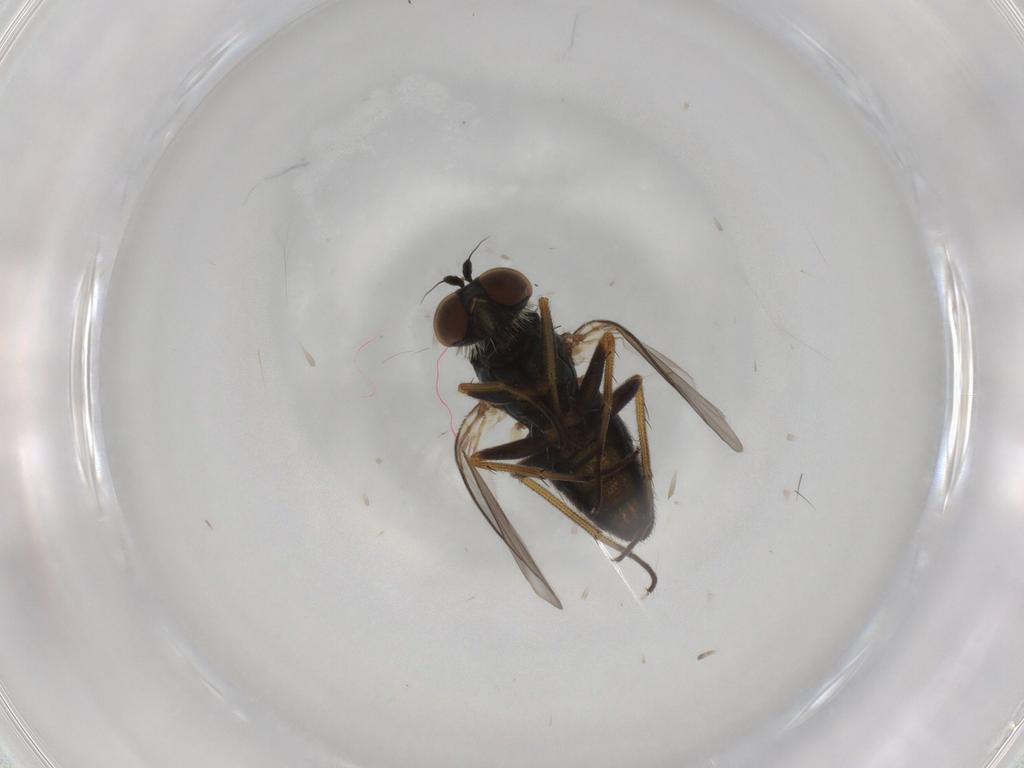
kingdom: Animalia
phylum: Arthropoda
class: Insecta
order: Diptera
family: Dolichopodidae
